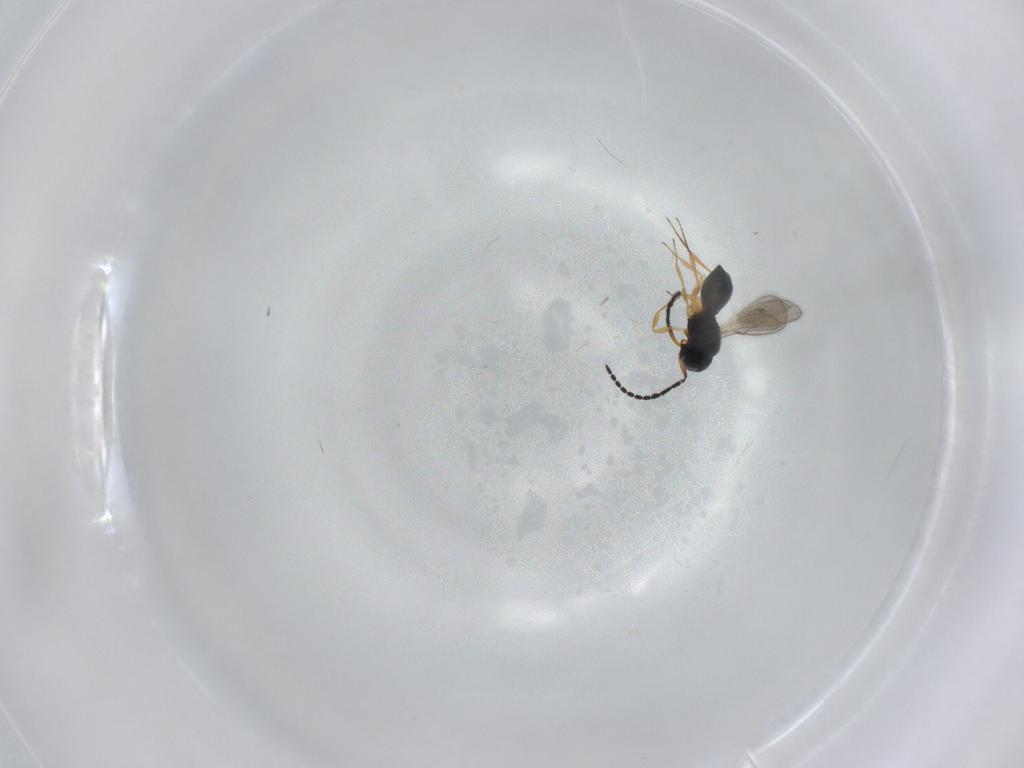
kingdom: Animalia
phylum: Arthropoda
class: Insecta
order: Hymenoptera
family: Scelionidae
